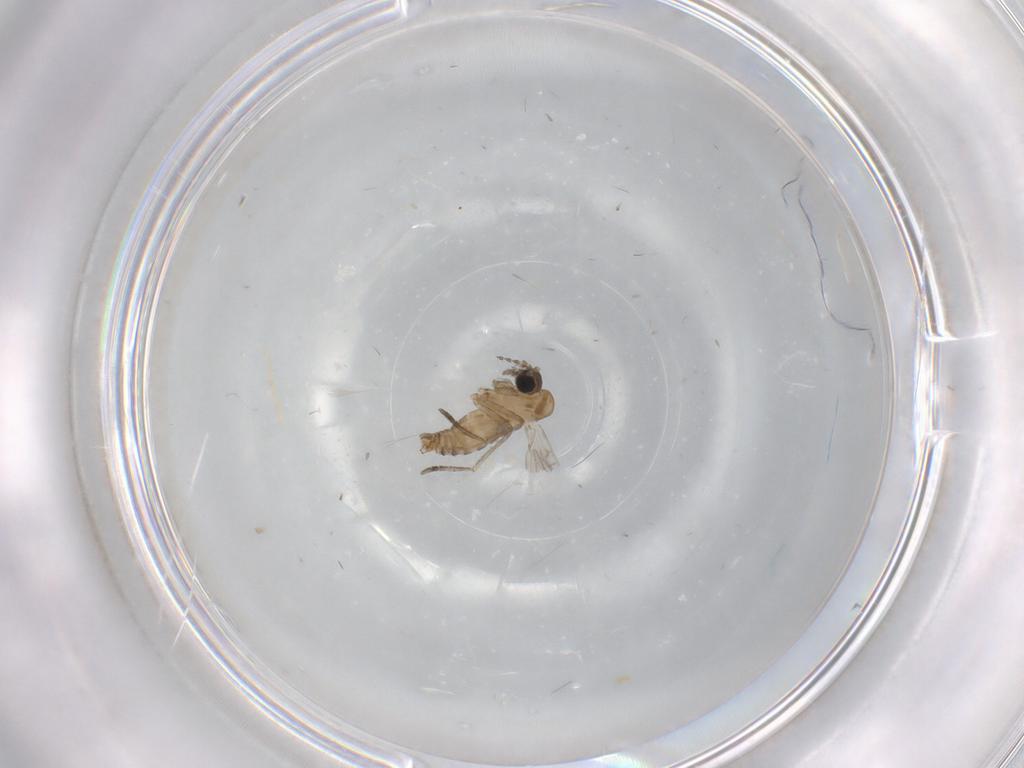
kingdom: Animalia
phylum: Arthropoda
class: Insecta
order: Diptera
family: Psychodidae
